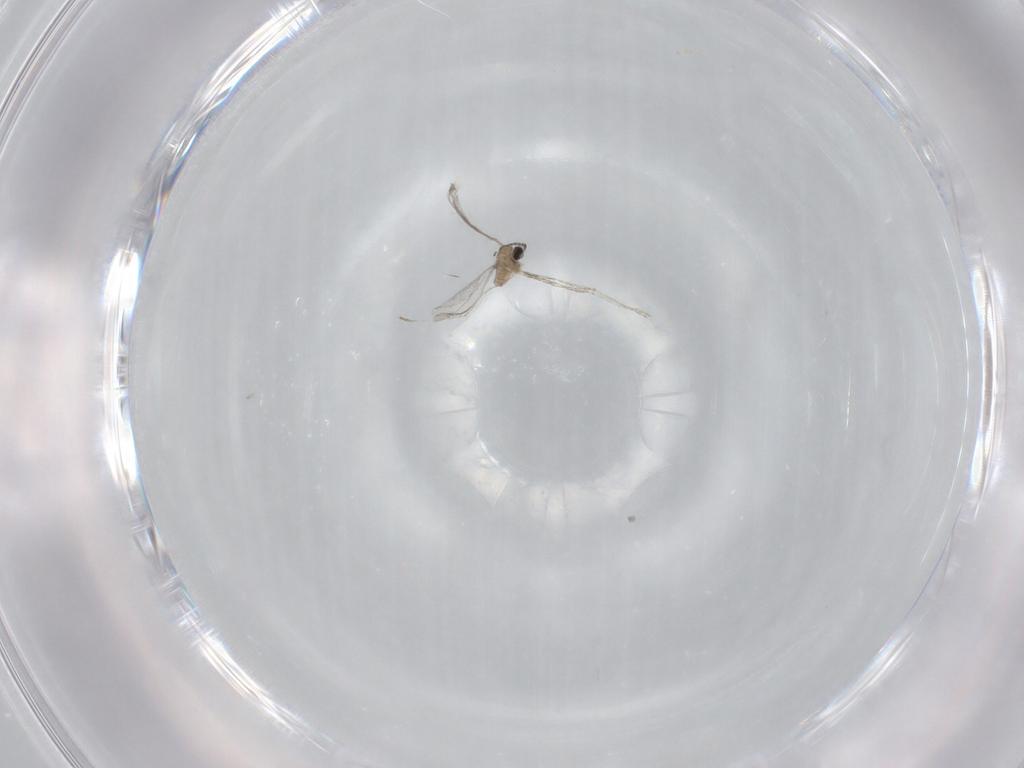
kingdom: Animalia
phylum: Arthropoda
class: Insecta
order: Diptera
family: Cecidomyiidae
